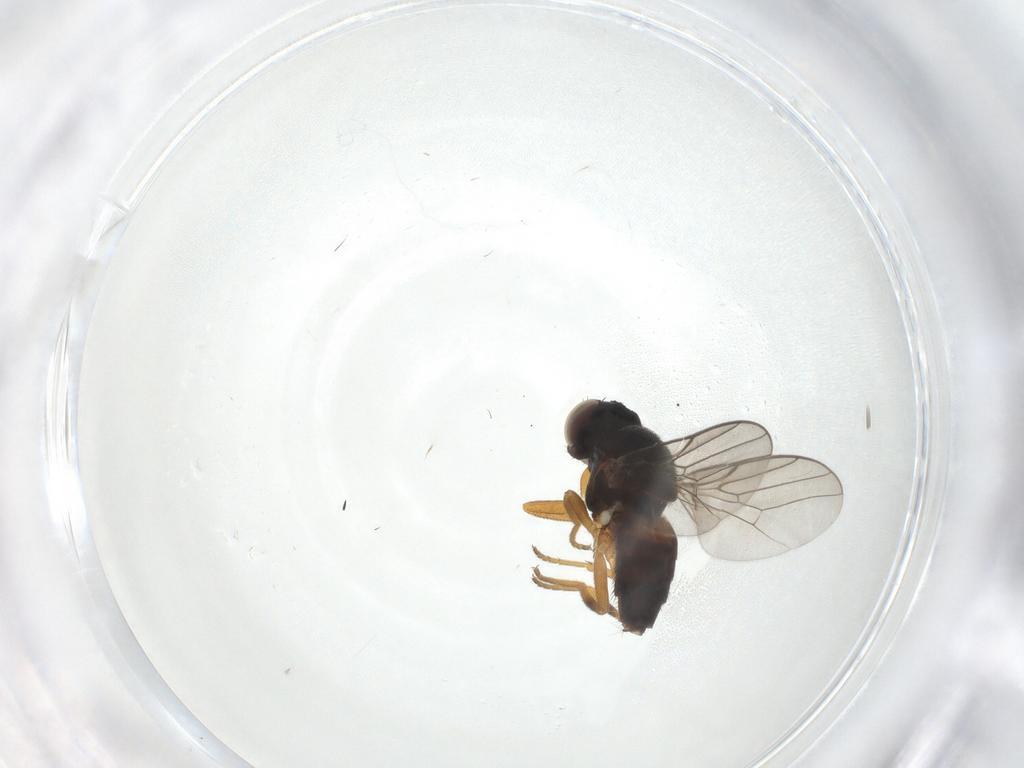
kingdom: Animalia
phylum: Arthropoda
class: Insecta
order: Diptera
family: Chloropidae
